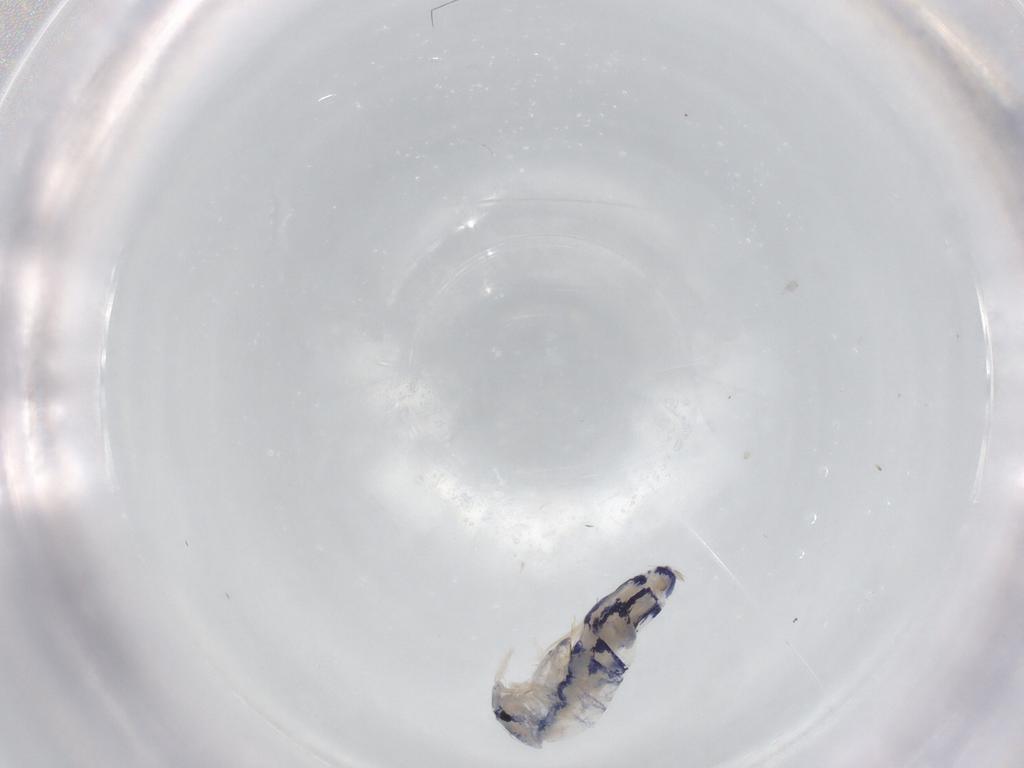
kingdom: Animalia
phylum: Arthropoda
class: Collembola
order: Entomobryomorpha
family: Entomobryidae
